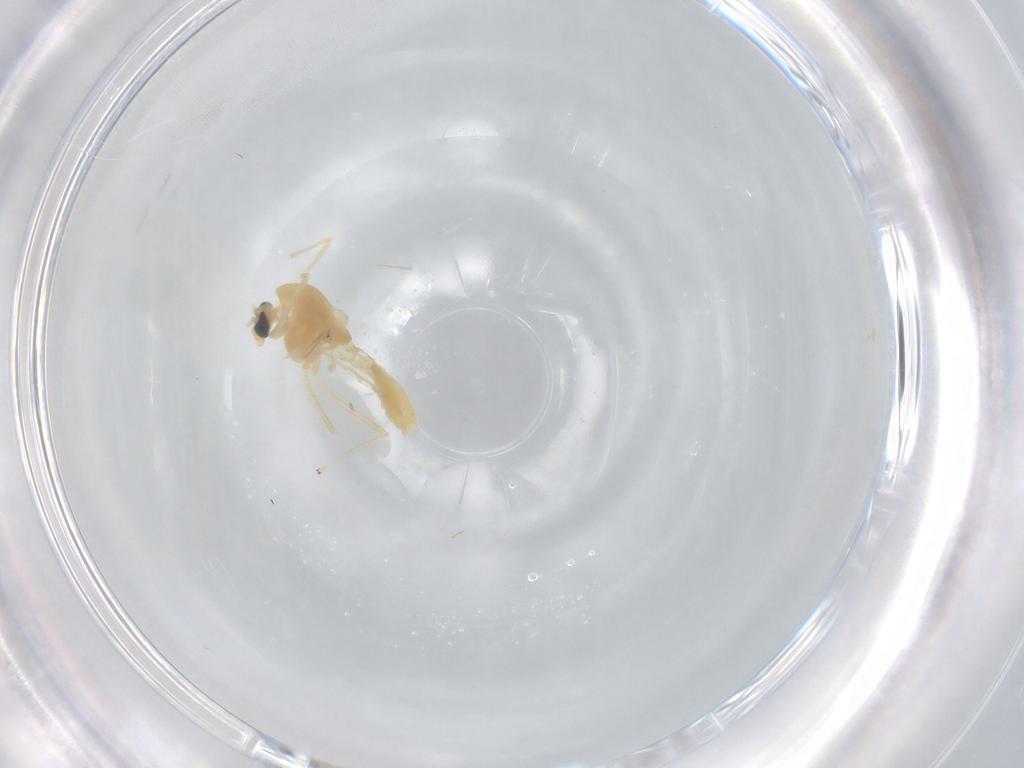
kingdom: Animalia
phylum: Arthropoda
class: Insecta
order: Diptera
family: Chironomidae
